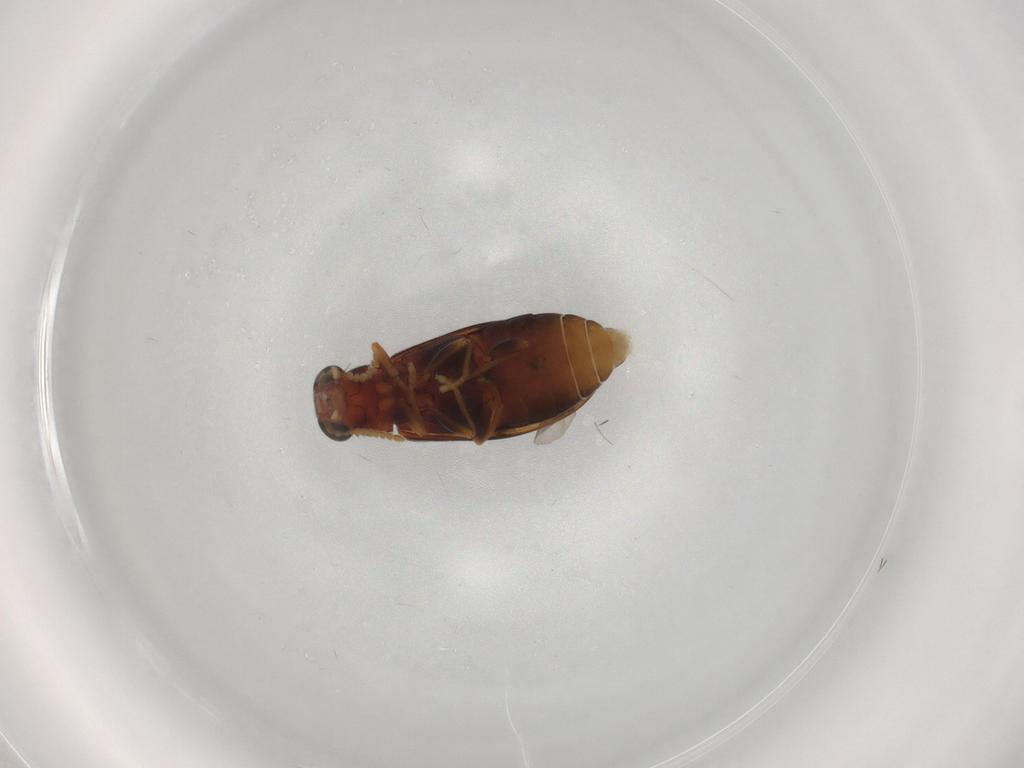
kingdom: Animalia
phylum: Arthropoda
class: Insecta
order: Coleoptera
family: Mycteridae
